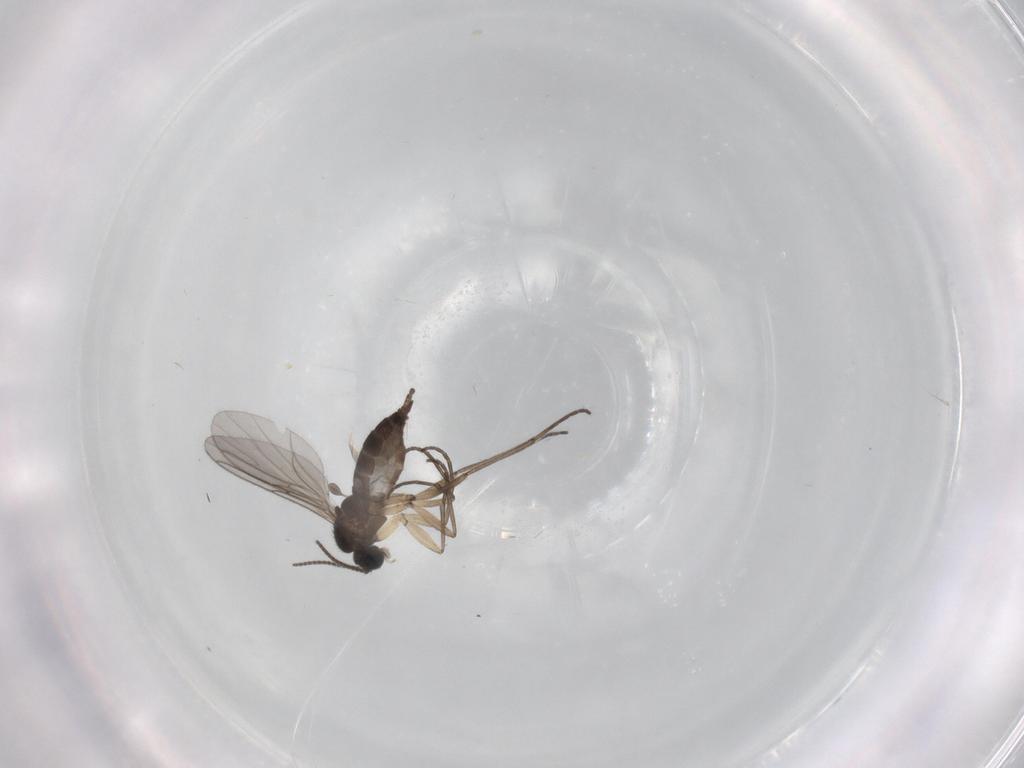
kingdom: Animalia
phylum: Arthropoda
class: Insecta
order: Diptera
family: Sciaridae
